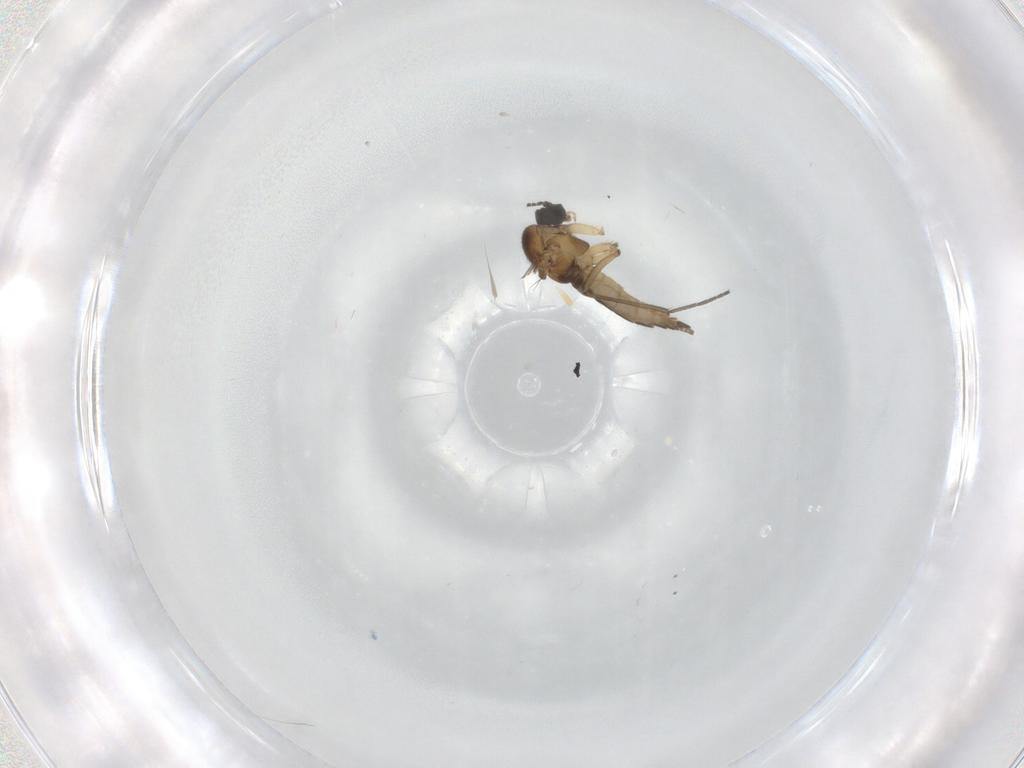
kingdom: Animalia
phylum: Arthropoda
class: Insecta
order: Diptera
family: Sciaridae
